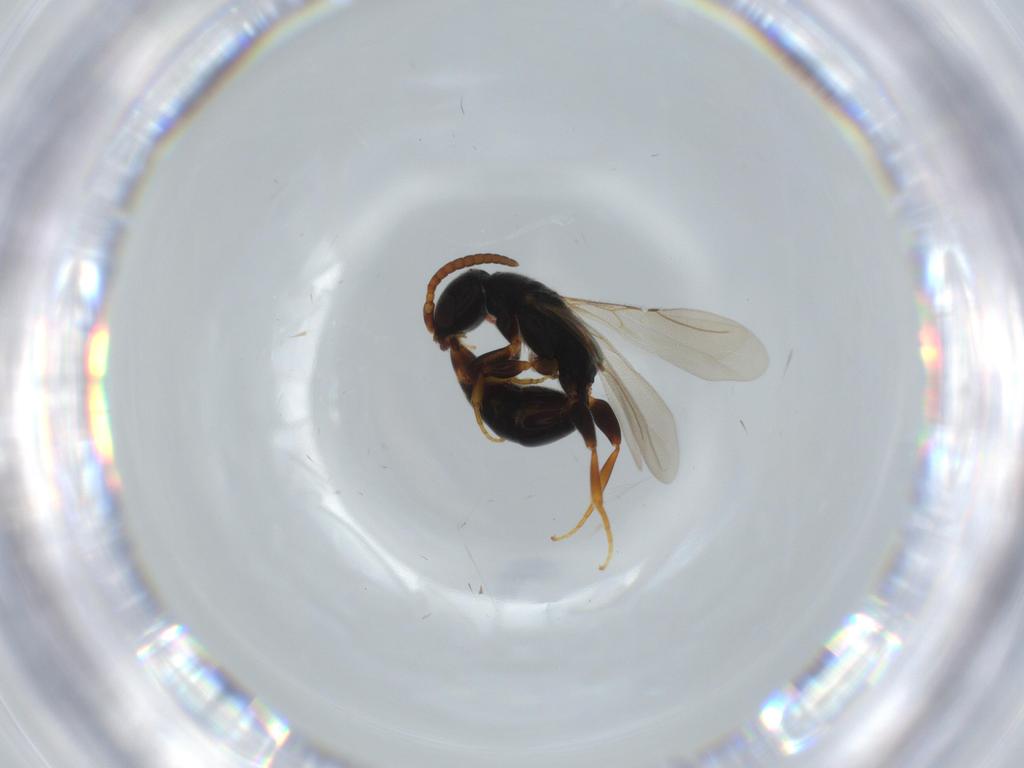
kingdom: Animalia
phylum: Arthropoda
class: Insecta
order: Hymenoptera
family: Bethylidae
